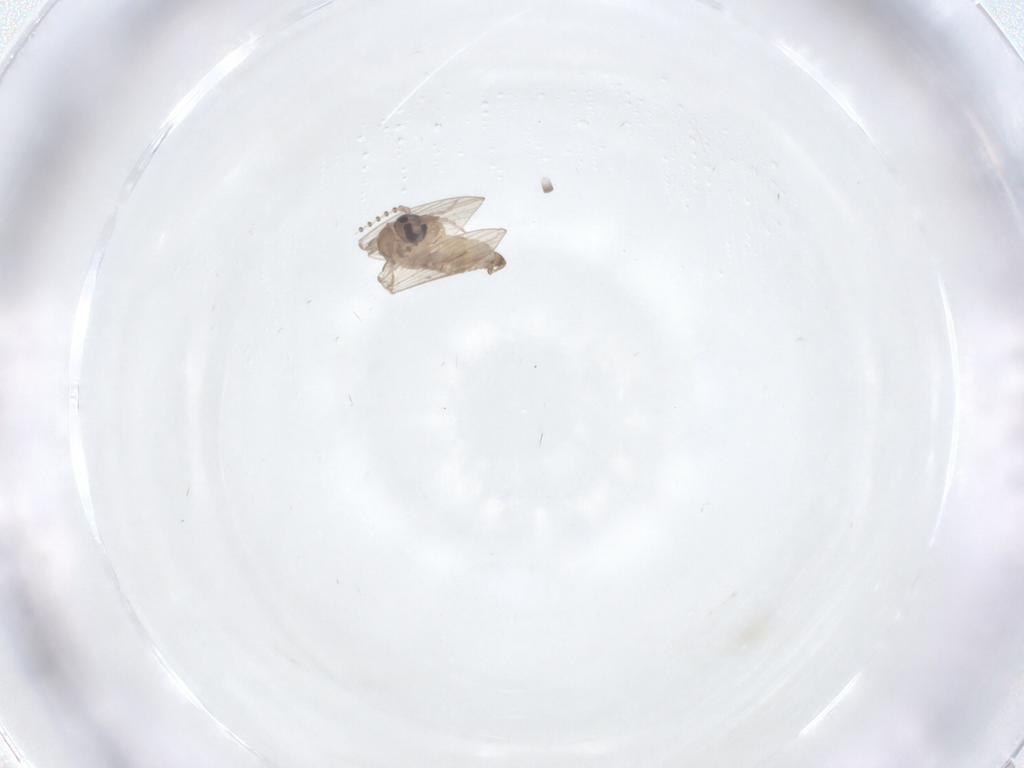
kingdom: Animalia
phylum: Arthropoda
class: Insecta
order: Diptera
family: Psychodidae
